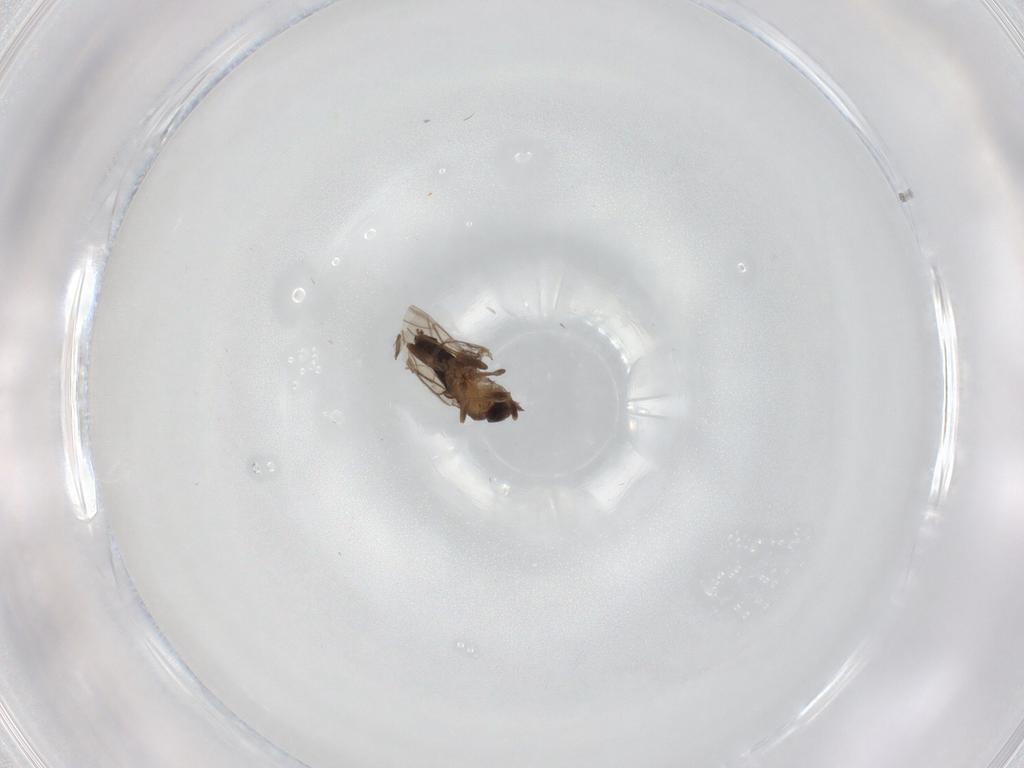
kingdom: Animalia
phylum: Arthropoda
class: Insecta
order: Diptera
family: Phoridae
